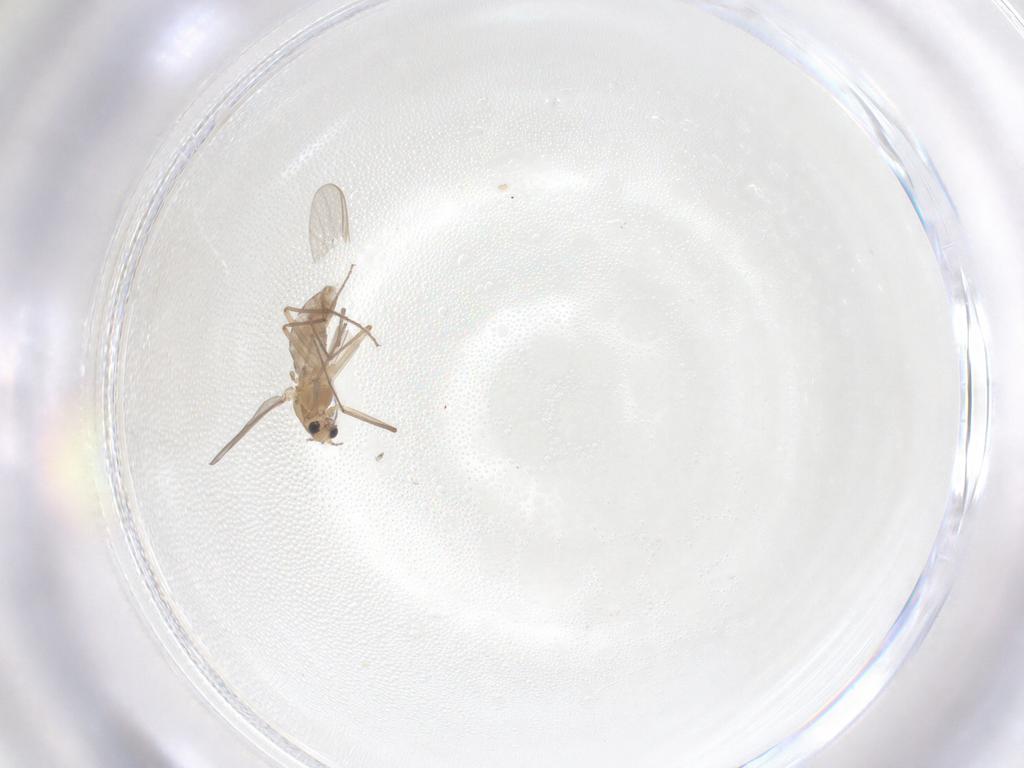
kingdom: Animalia
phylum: Arthropoda
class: Insecta
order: Diptera
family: Chironomidae
